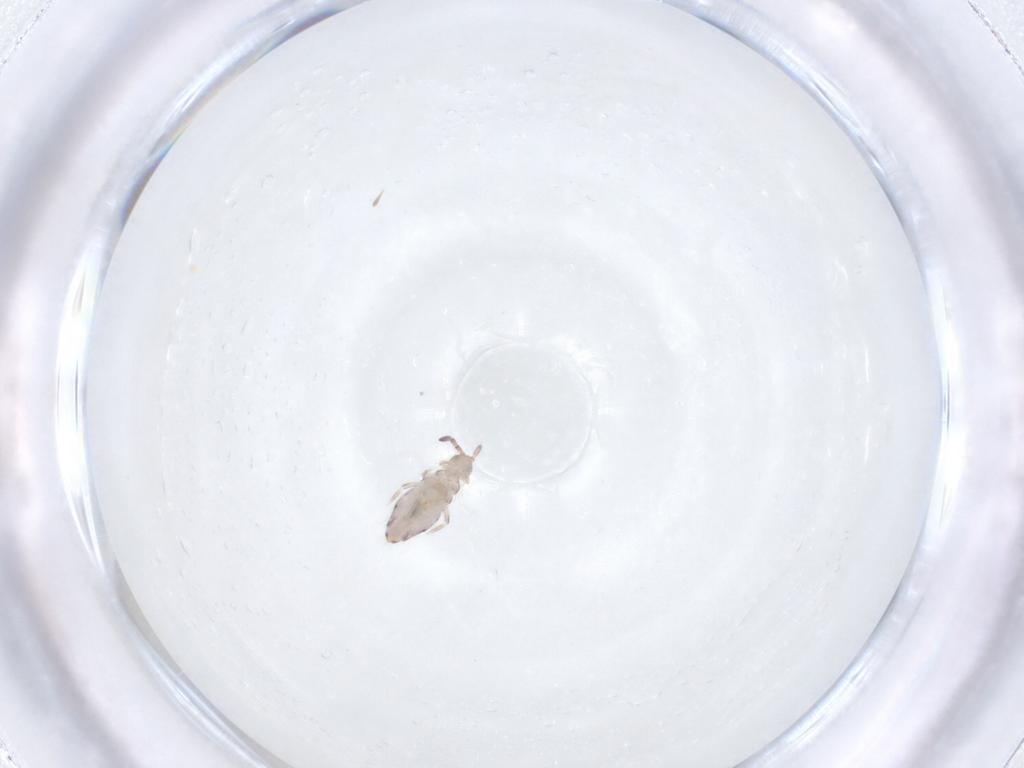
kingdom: Animalia
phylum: Arthropoda
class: Insecta
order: Diptera
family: Cecidomyiidae
